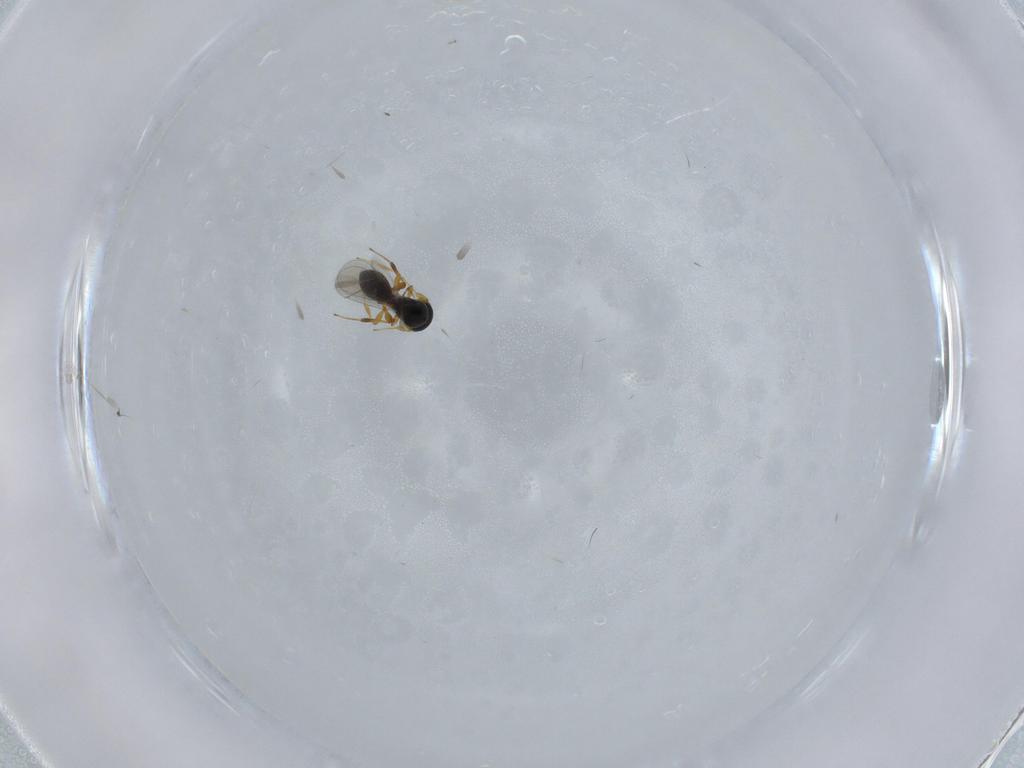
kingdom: Animalia
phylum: Arthropoda
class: Insecta
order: Hymenoptera
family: Platygastridae
